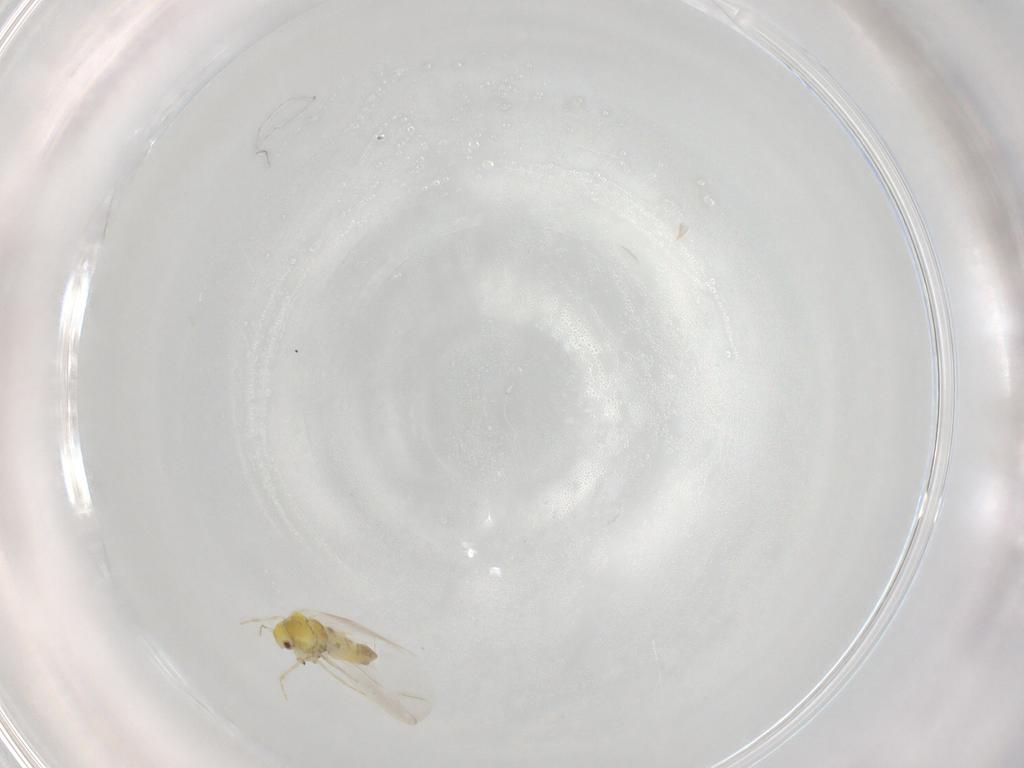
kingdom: Animalia
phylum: Arthropoda
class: Insecta
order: Hemiptera
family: Aleyrodidae
